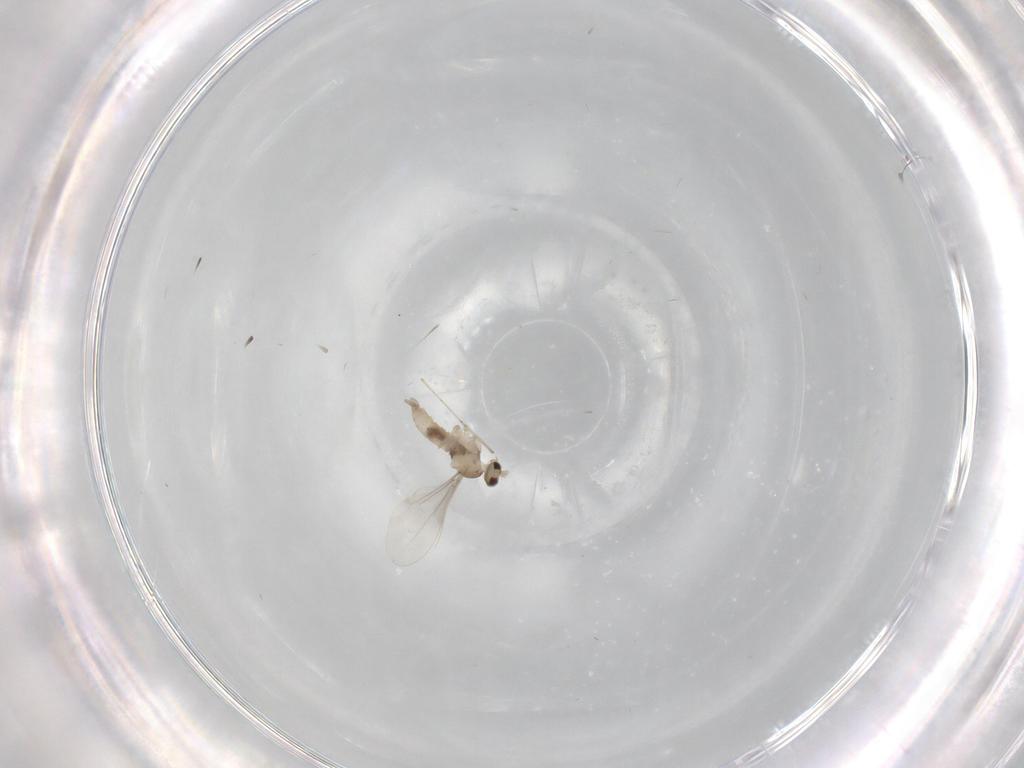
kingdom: Animalia
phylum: Arthropoda
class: Insecta
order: Diptera
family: Cecidomyiidae
